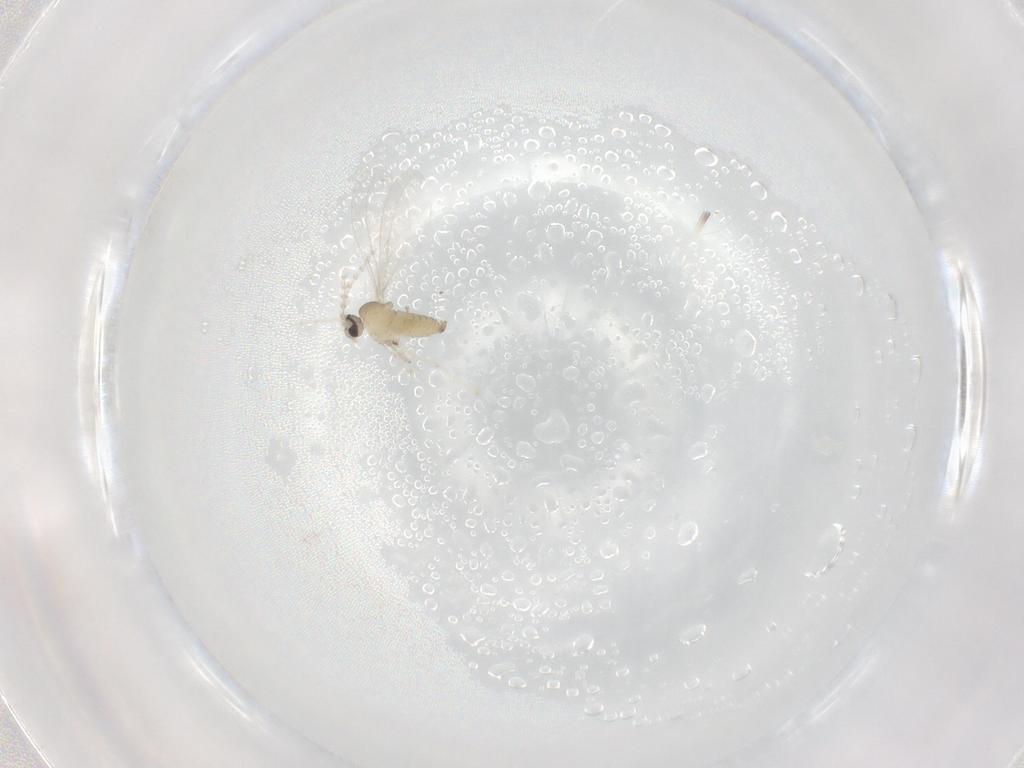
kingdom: Animalia
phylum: Arthropoda
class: Insecta
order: Diptera
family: Cecidomyiidae
